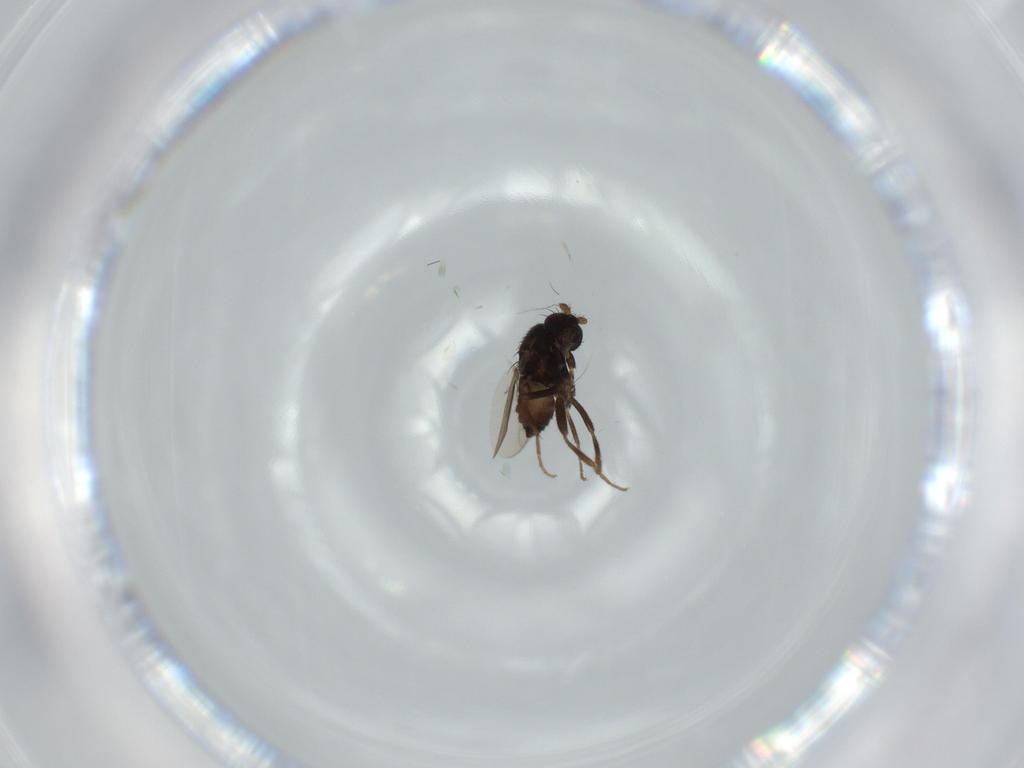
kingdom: Animalia
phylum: Arthropoda
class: Insecta
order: Diptera
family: Sphaeroceridae
